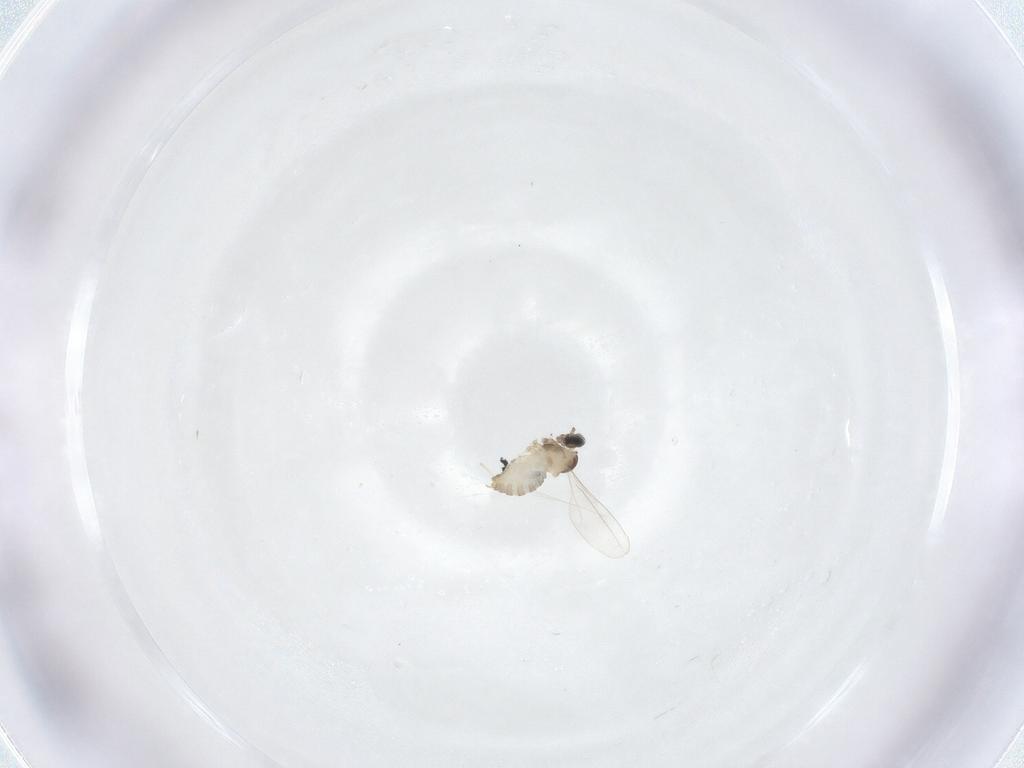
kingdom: Animalia
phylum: Arthropoda
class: Insecta
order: Diptera
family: Cecidomyiidae
